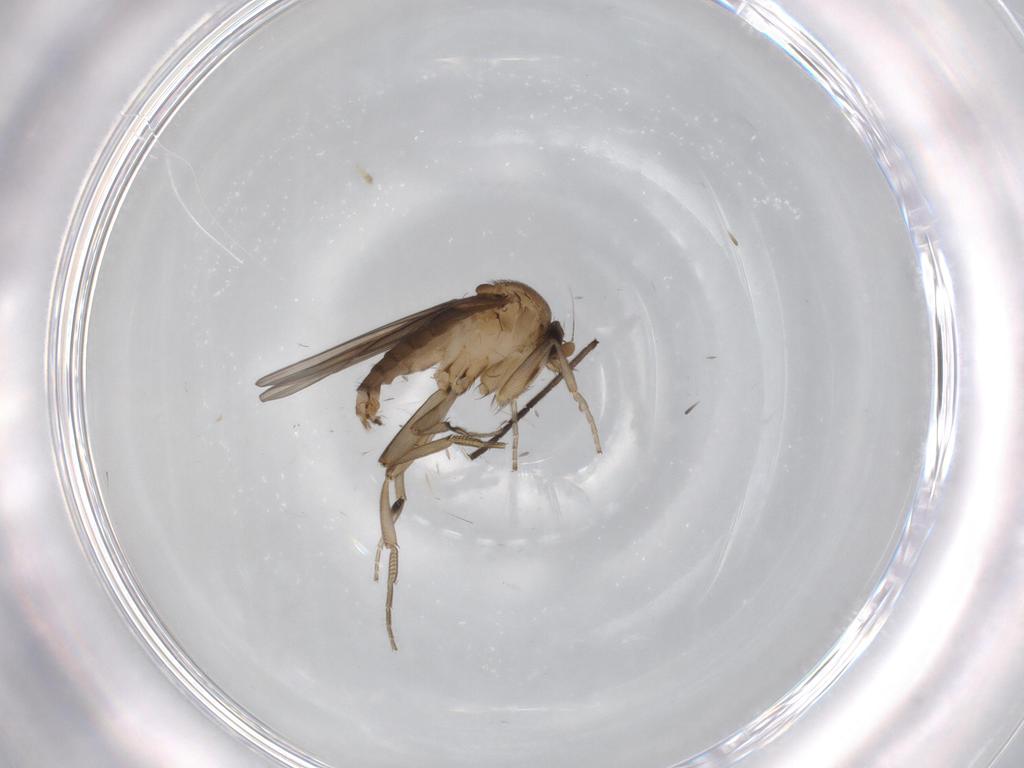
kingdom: Animalia
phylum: Arthropoda
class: Insecta
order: Diptera
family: Phoridae
